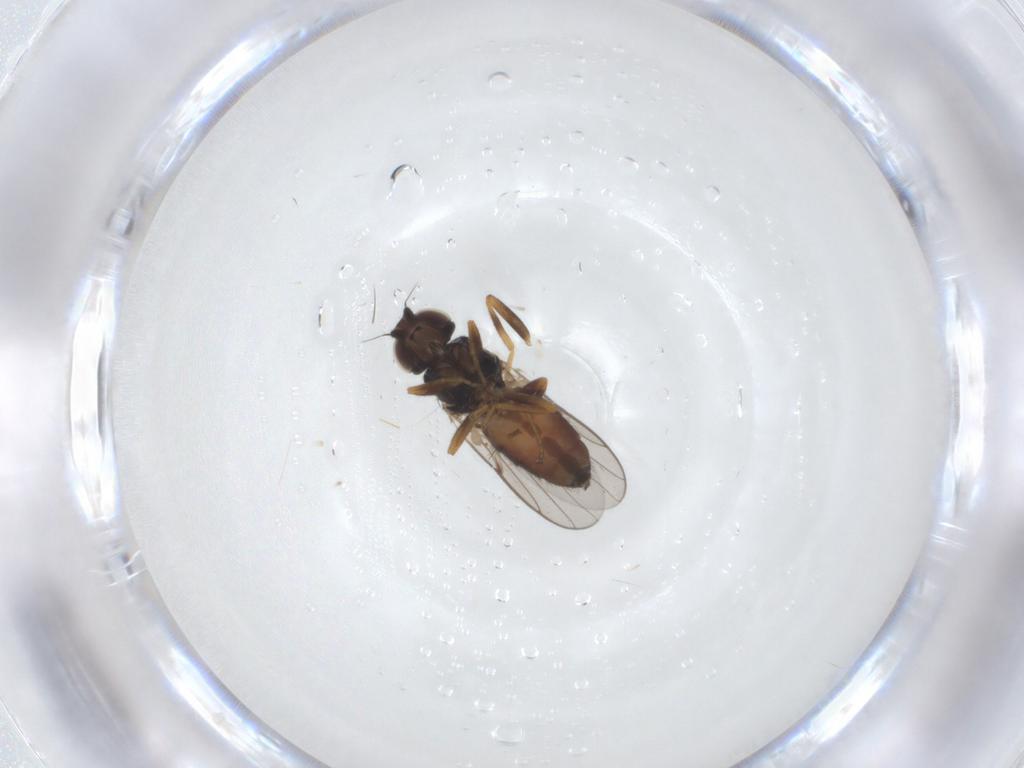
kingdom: Animalia
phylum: Arthropoda
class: Insecta
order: Diptera
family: Chloropidae
